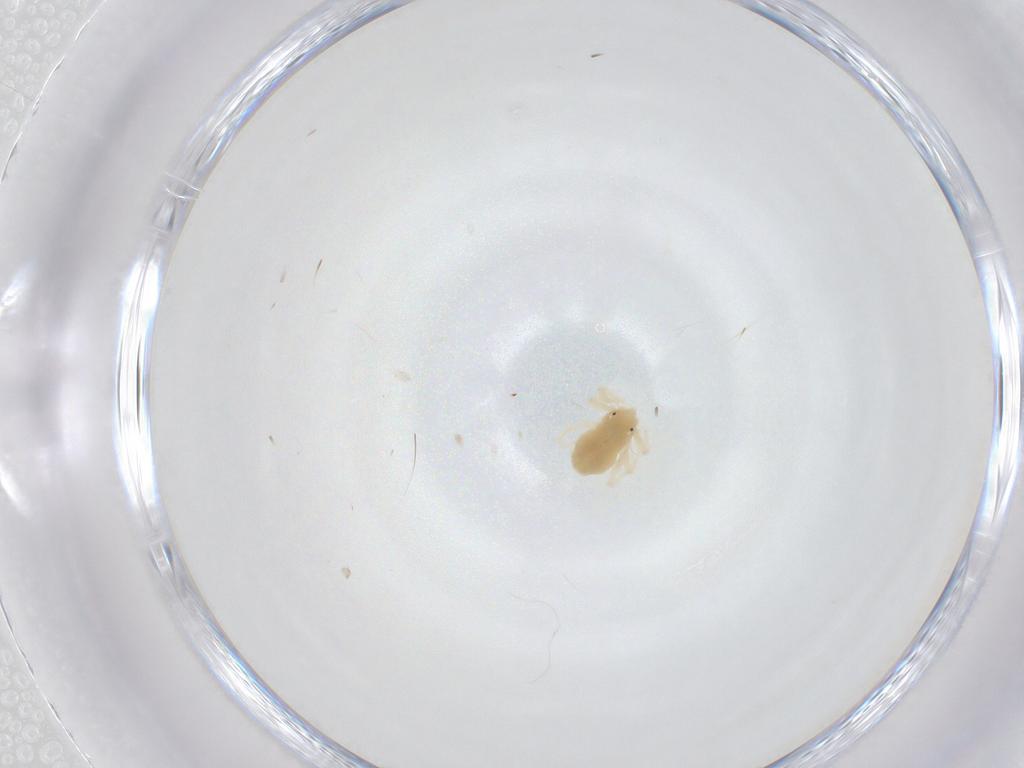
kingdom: Animalia
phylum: Arthropoda
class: Arachnida
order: Trombidiformes
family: Anystidae
